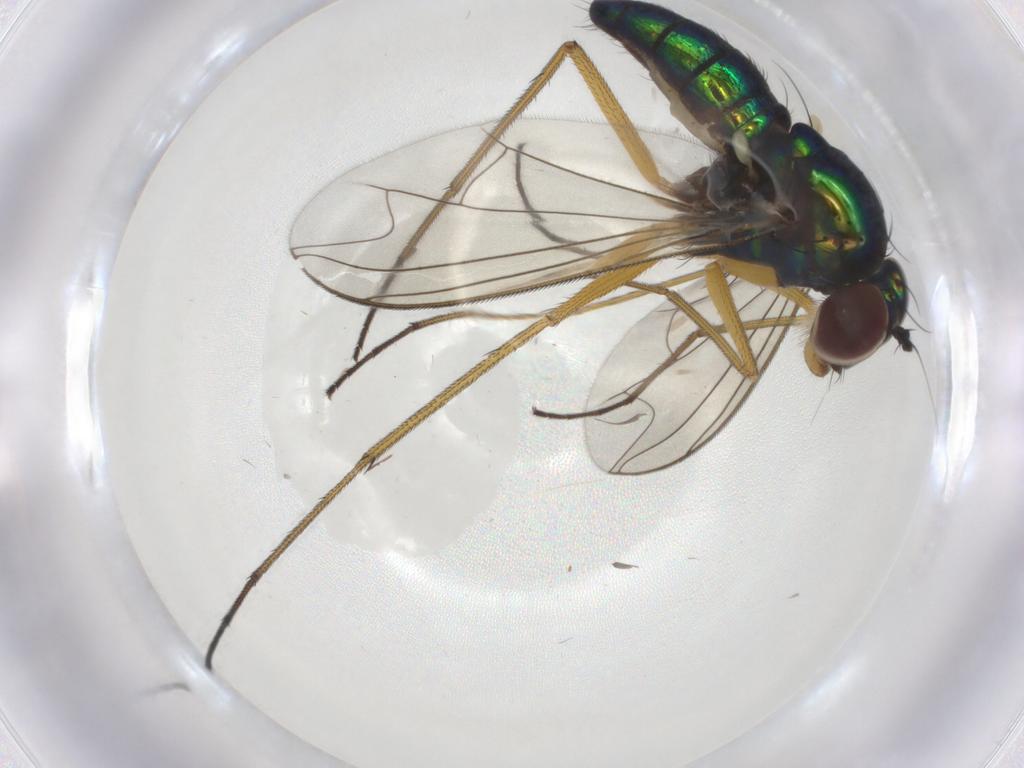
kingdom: Animalia
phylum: Arthropoda
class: Insecta
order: Diptera
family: Dolichopodidae
